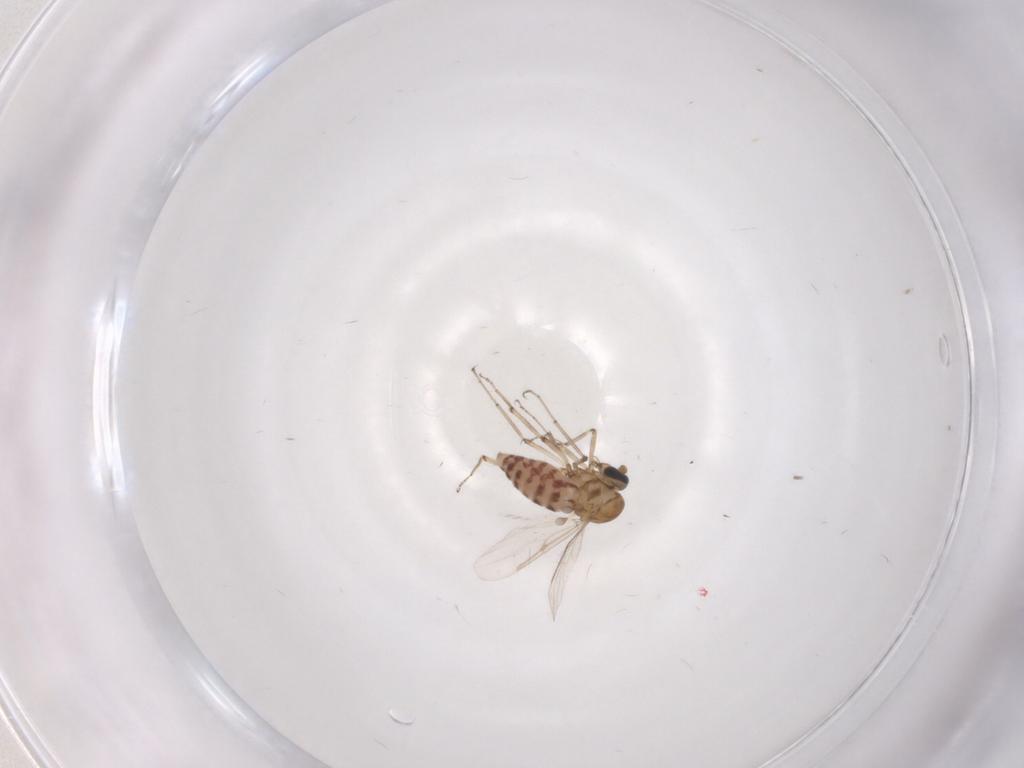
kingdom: Animalia
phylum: Arthropoda
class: Insecta
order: Diptera
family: Ceratopogonidae
